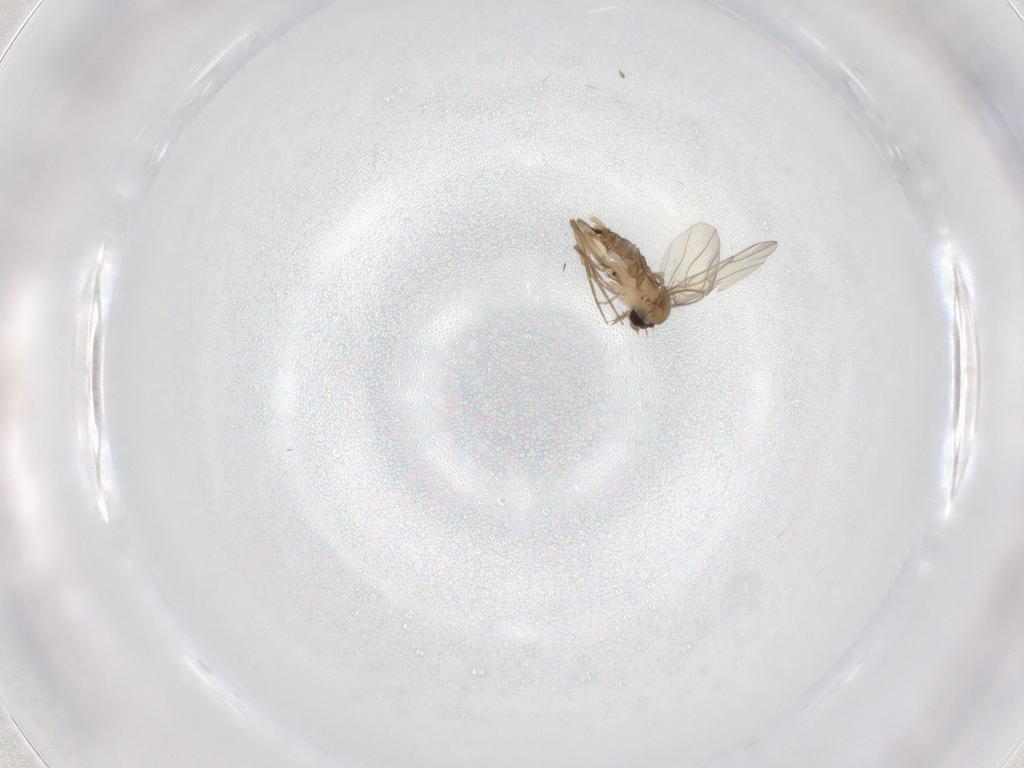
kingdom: Animalia
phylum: Arthropoda
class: Insecta
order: Diptera
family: Phoridae
